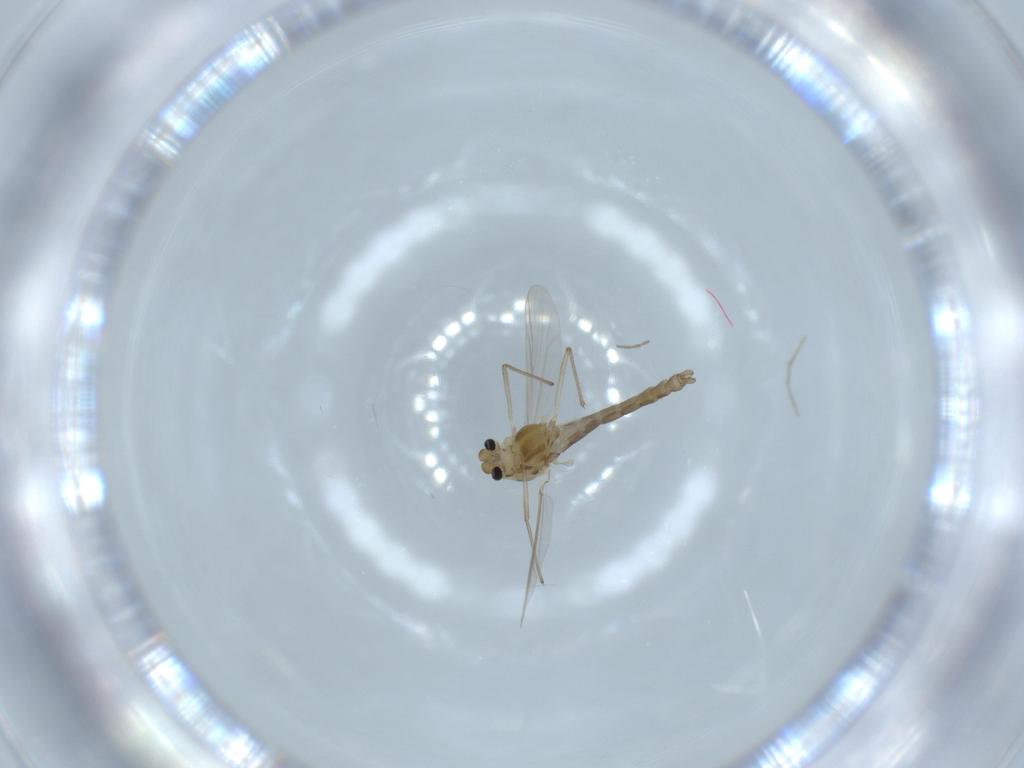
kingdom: Animalia
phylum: Arthropoda
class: Insecta
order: Diptera
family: Chironomidae
